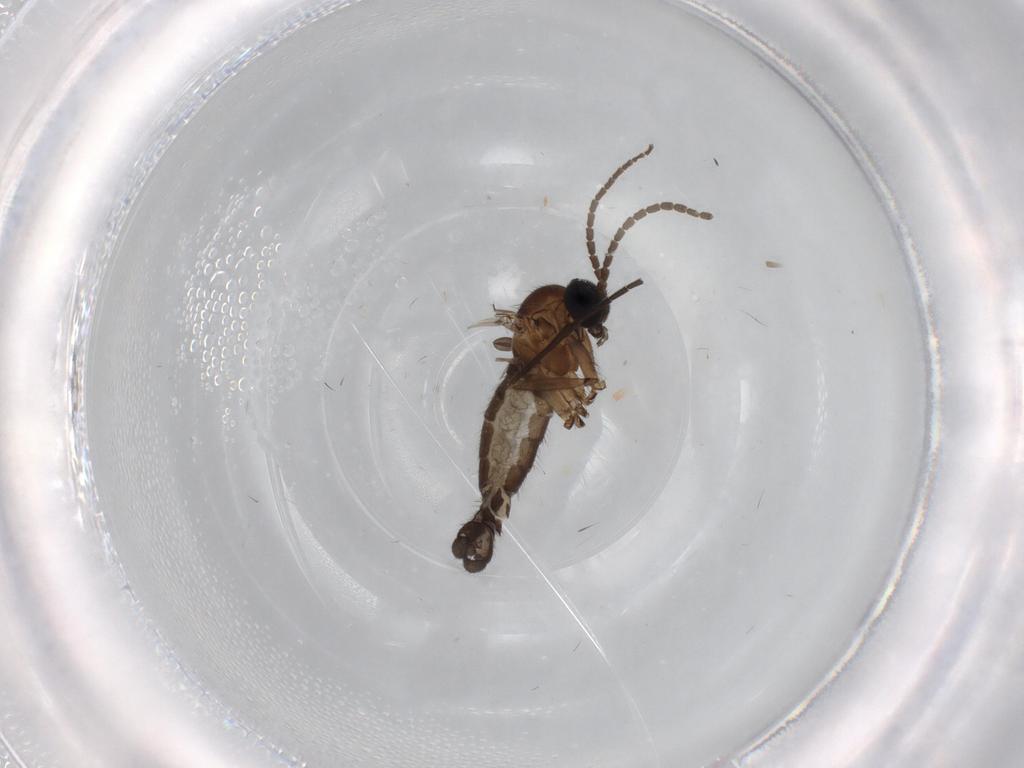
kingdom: Animalia
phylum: Arthropoda
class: Insecta
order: Diptera
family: Sciaridae
